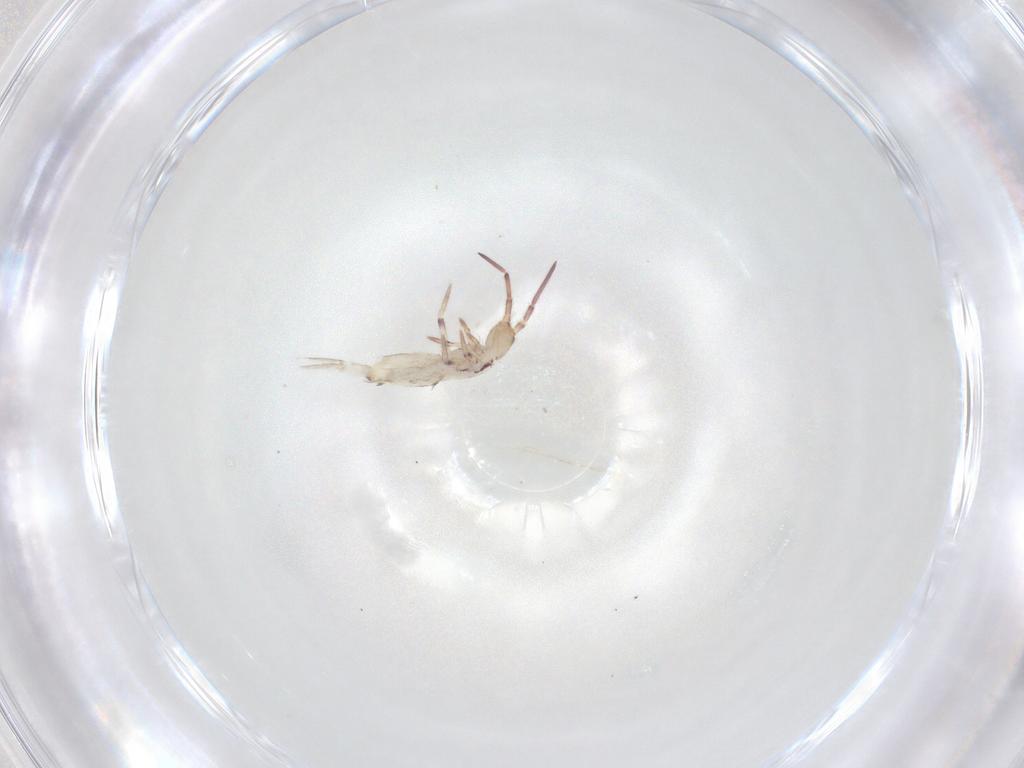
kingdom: Animalia
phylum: Arthropoda
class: Collembola
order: Entomobryomorpha
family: Entomobryidae
